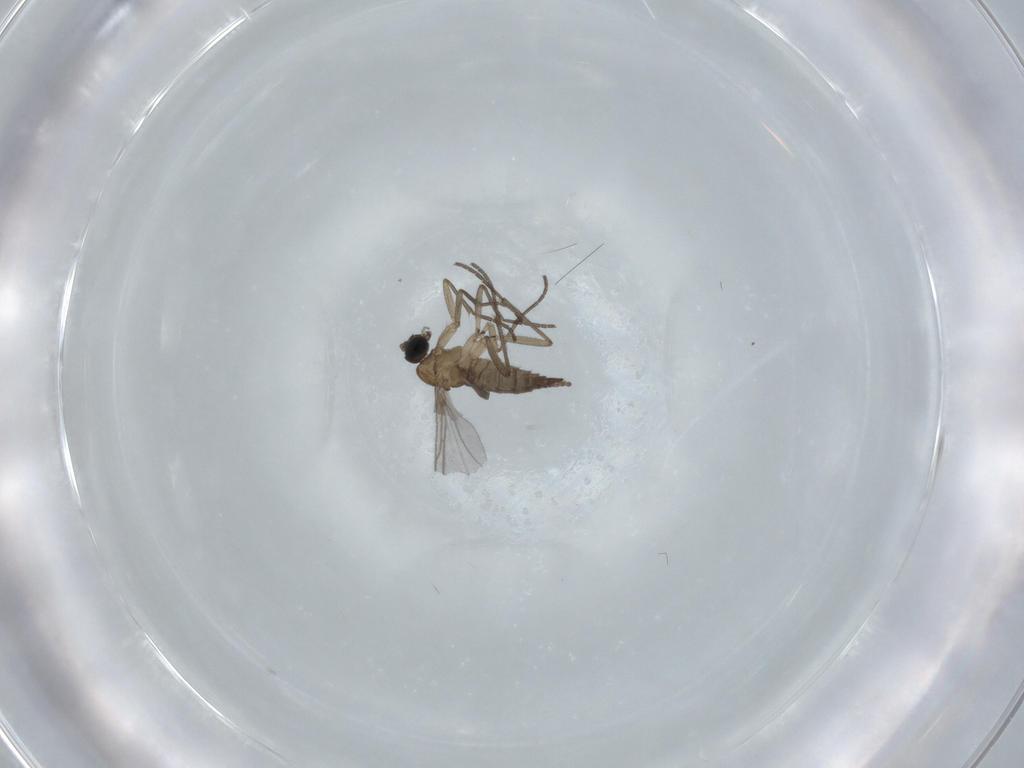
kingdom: Animalia
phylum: Arthropoda
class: Insecta
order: Diptera
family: Sciaridae
